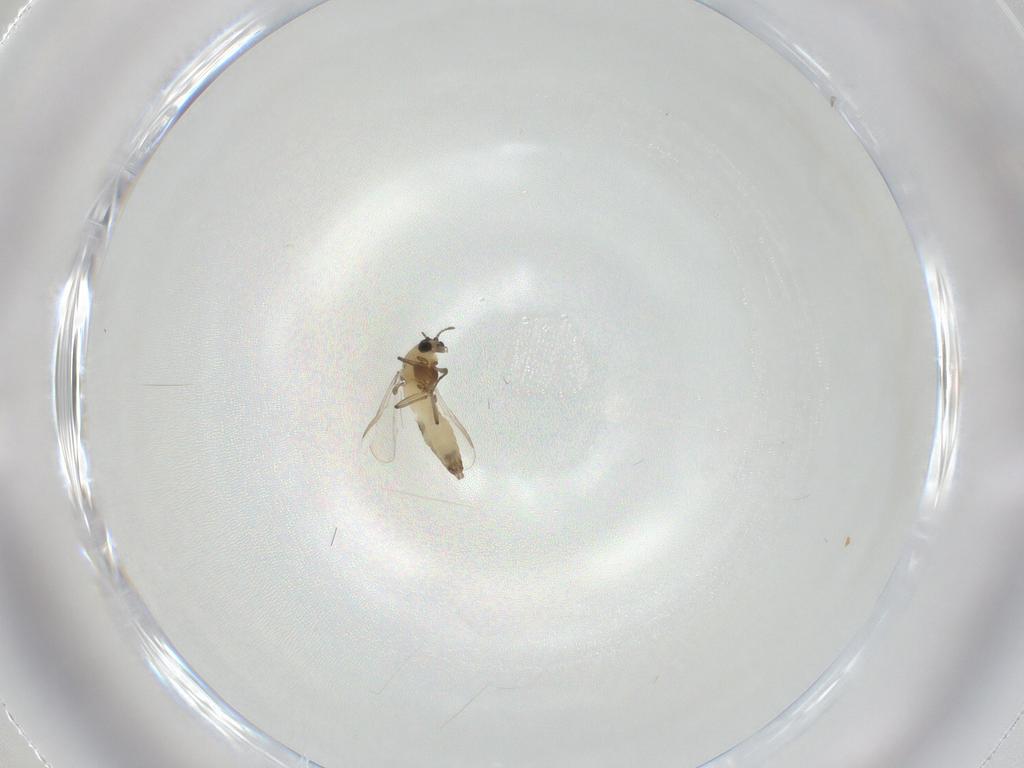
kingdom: Animalia
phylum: Arthropoda
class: Insecta
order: Diptera
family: Chironomidae
